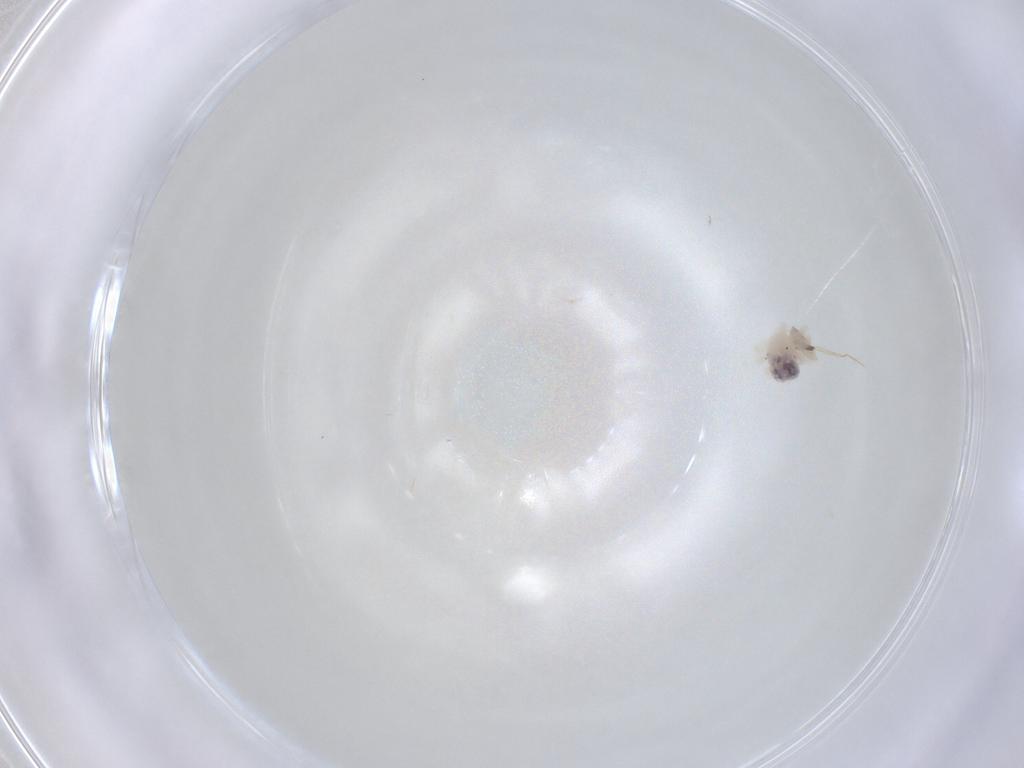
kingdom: Animalia
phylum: Arthropoda
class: Arachnida
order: Trombidiformes
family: Anystidae
